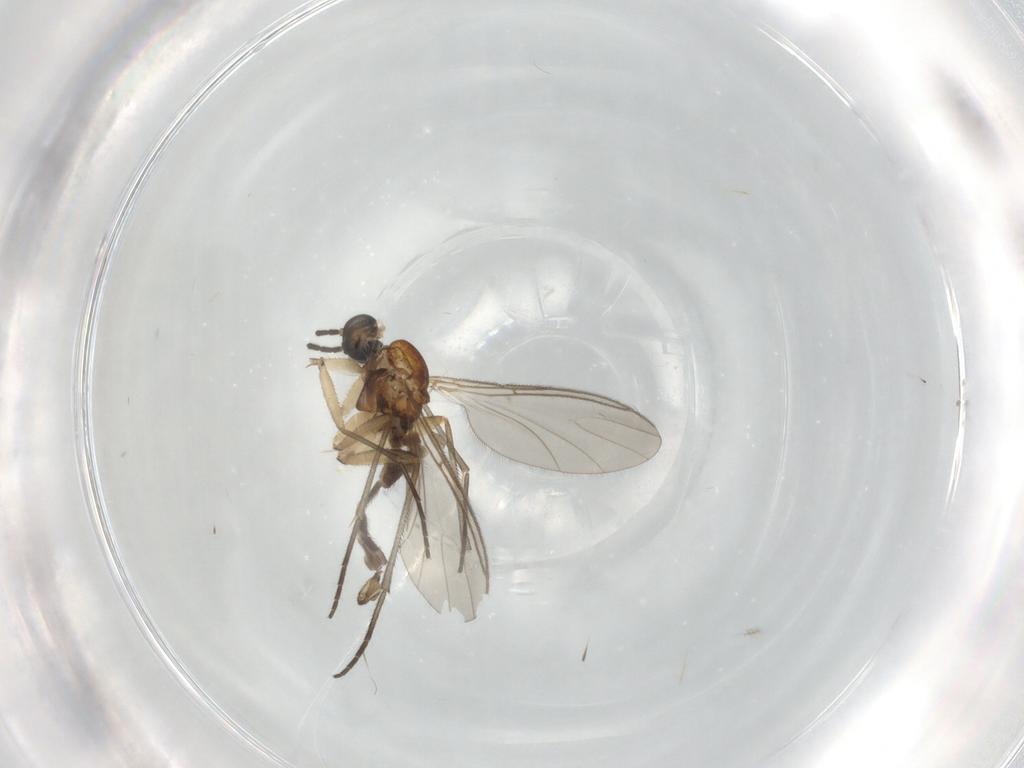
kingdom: Animalia
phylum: Arthropoda
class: Insecta
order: Diptera
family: Sciaridae
